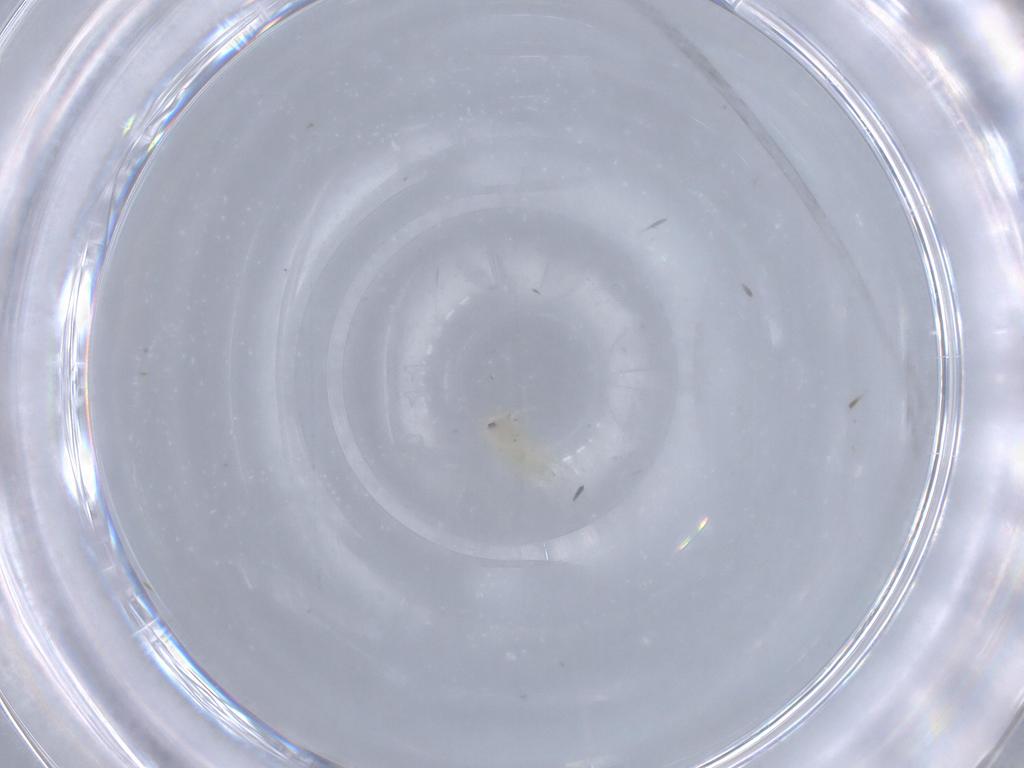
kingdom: Animalia
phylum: Arthropoda
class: Insecta
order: Hemiptera
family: Aleyrodidae
